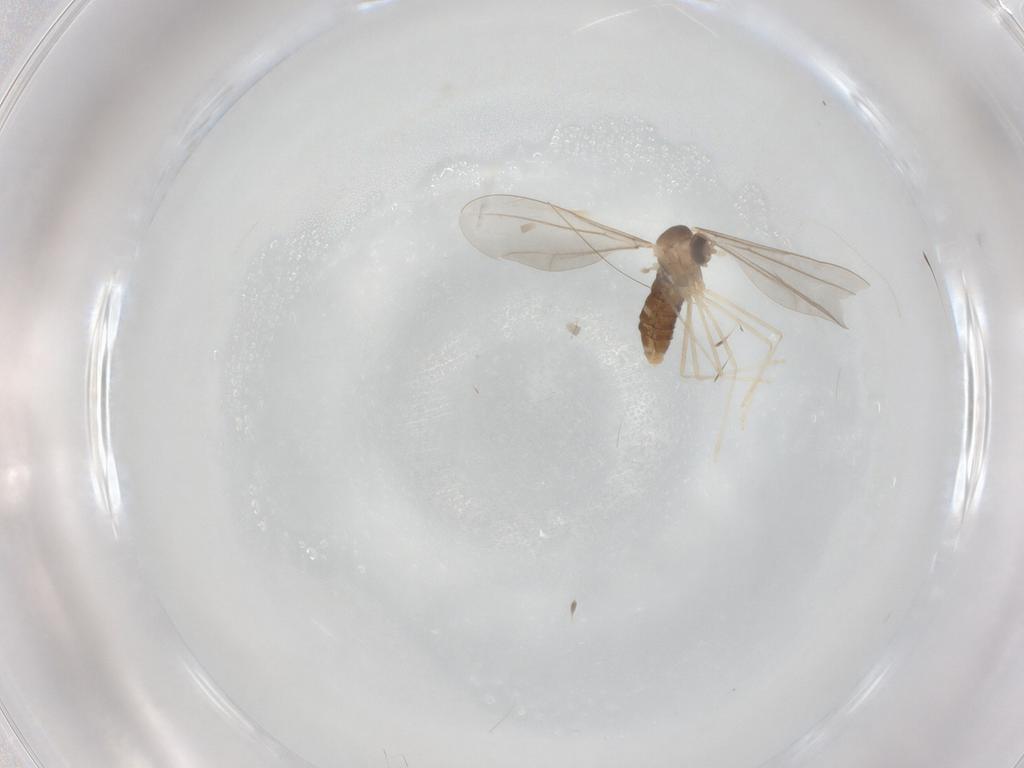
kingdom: Animalia
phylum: Arthropoda
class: Insecta
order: Diptera
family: Cecidomyiidae
